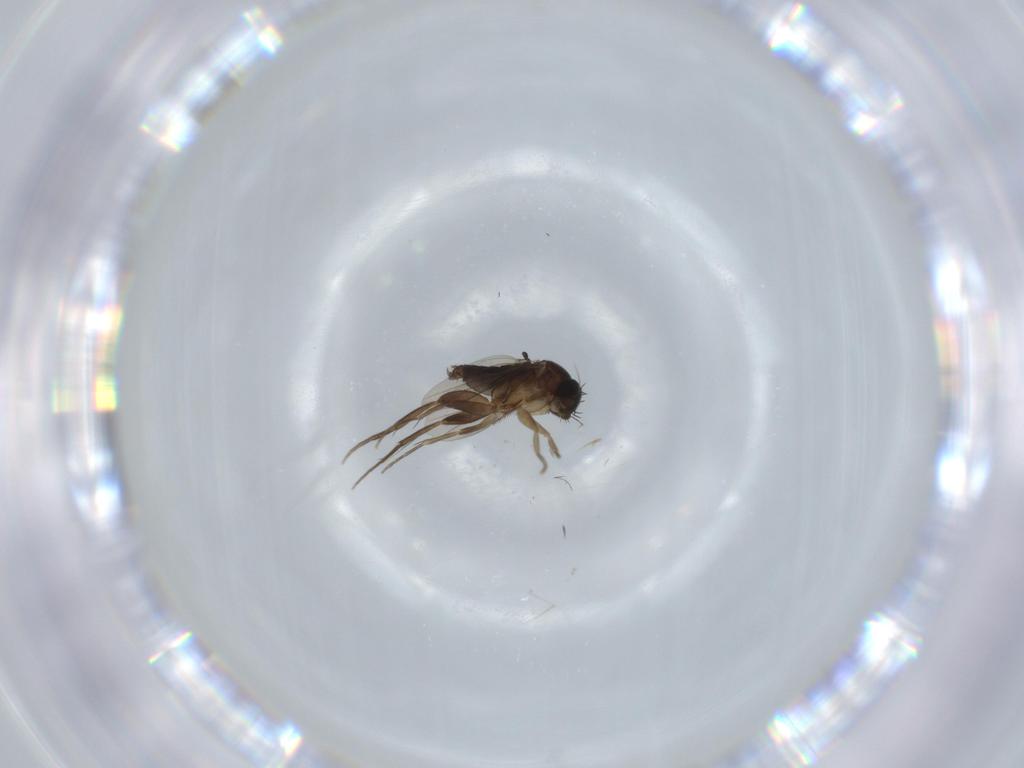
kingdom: Animalia
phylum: Arthropoda
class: Insecta
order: Diptera
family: Phoridae
